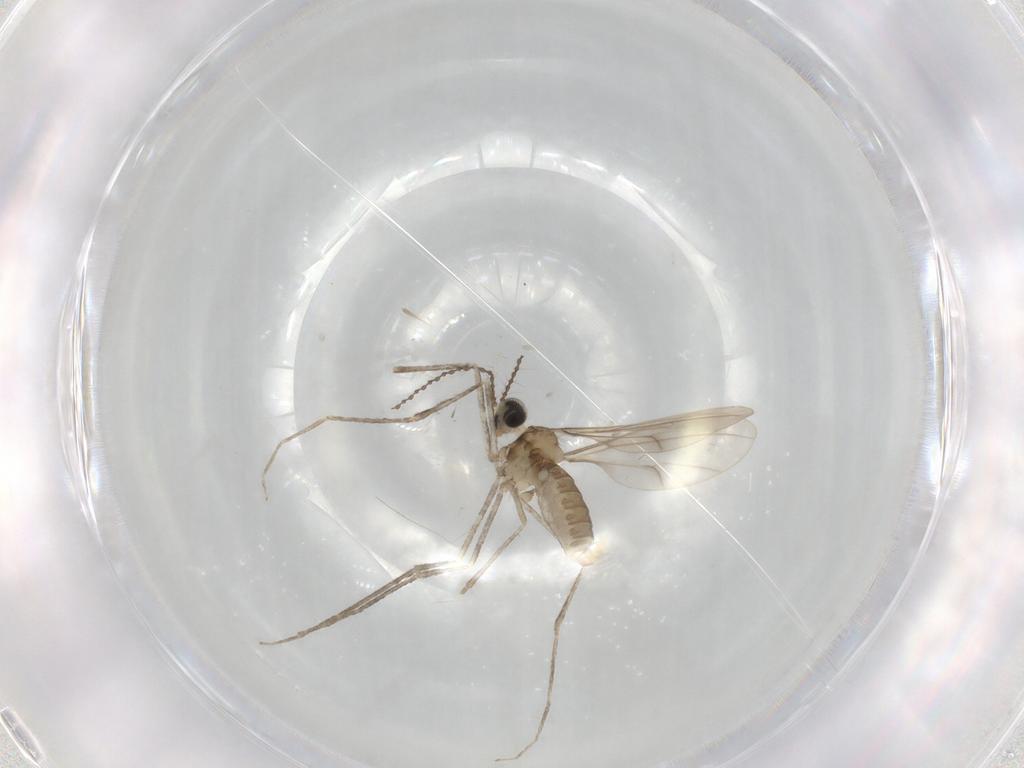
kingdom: Animalia
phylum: Arthropoda
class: Insecta
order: Diptera
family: Cecidomyiidae
